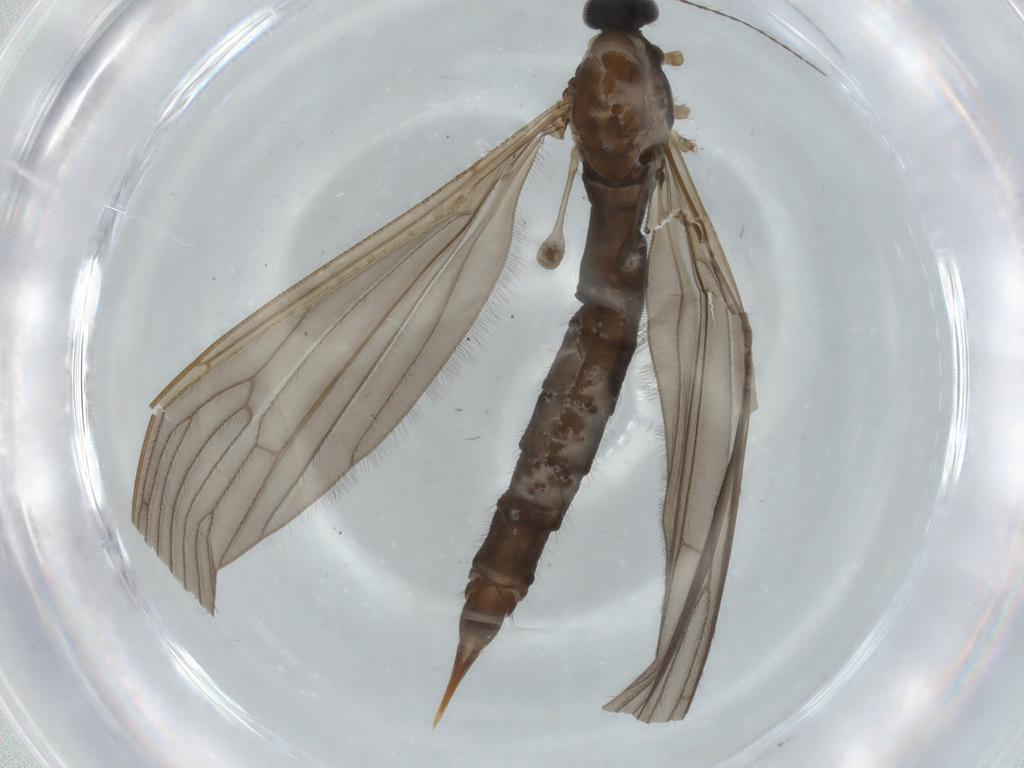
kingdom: Animalia
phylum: Arthropoda
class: Insecta
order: Diptera
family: Ceratopogonidae
